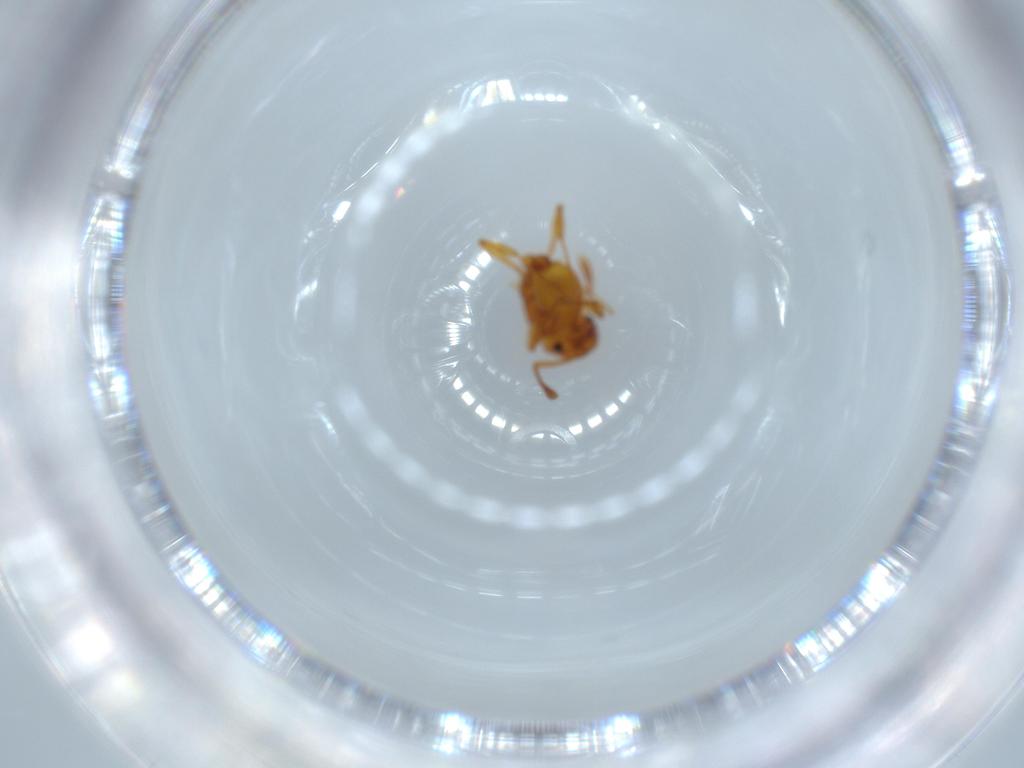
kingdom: Animalia
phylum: Arthropoda
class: Insecta
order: Hymenoptera
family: Formicidae
